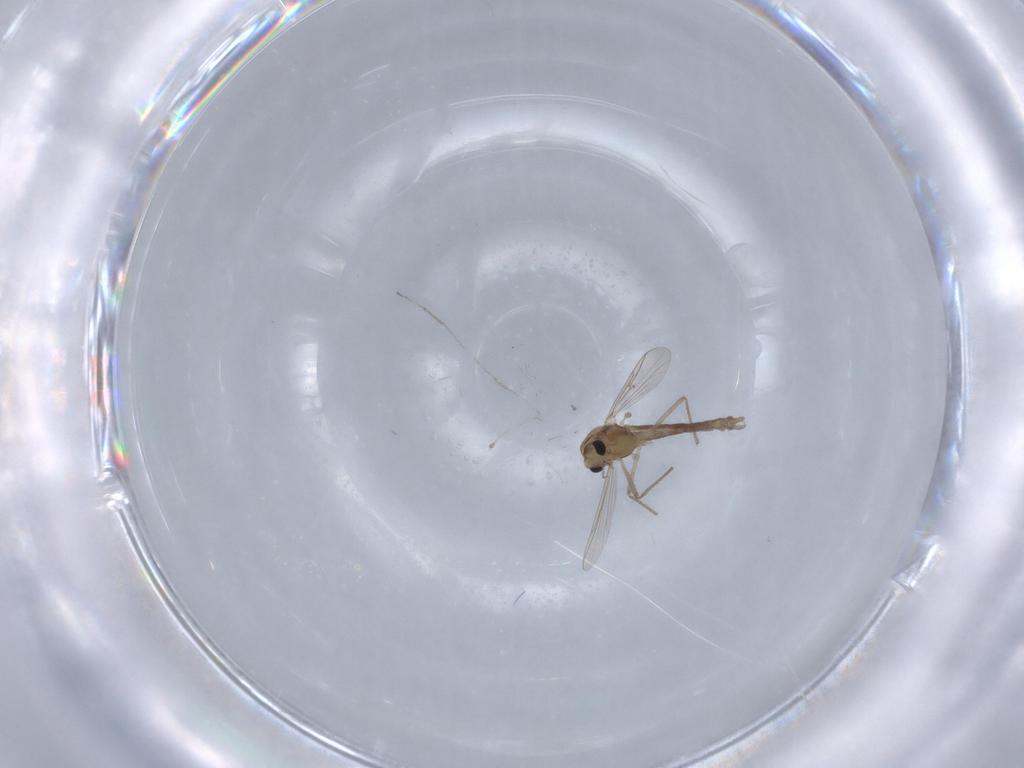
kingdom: Animalia
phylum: Arthropoda
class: Insecta
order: Diptera
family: Chironomidae
